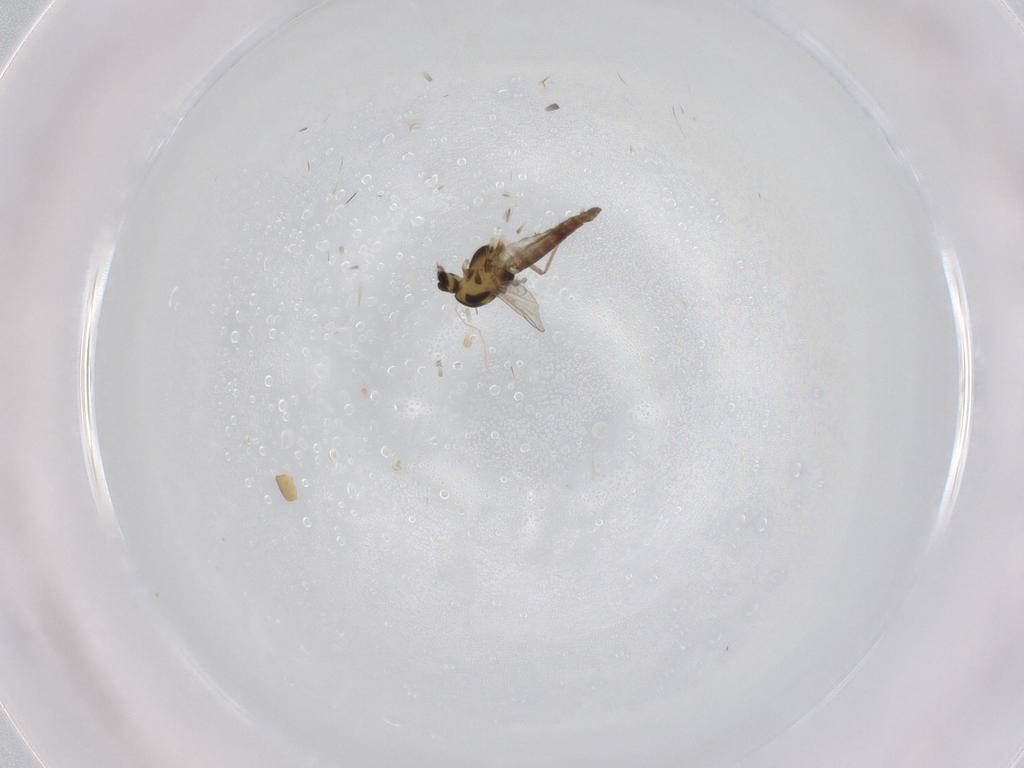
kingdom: Animalia
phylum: Arthropoda
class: Insecta
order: Diptera
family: Chironomidae
